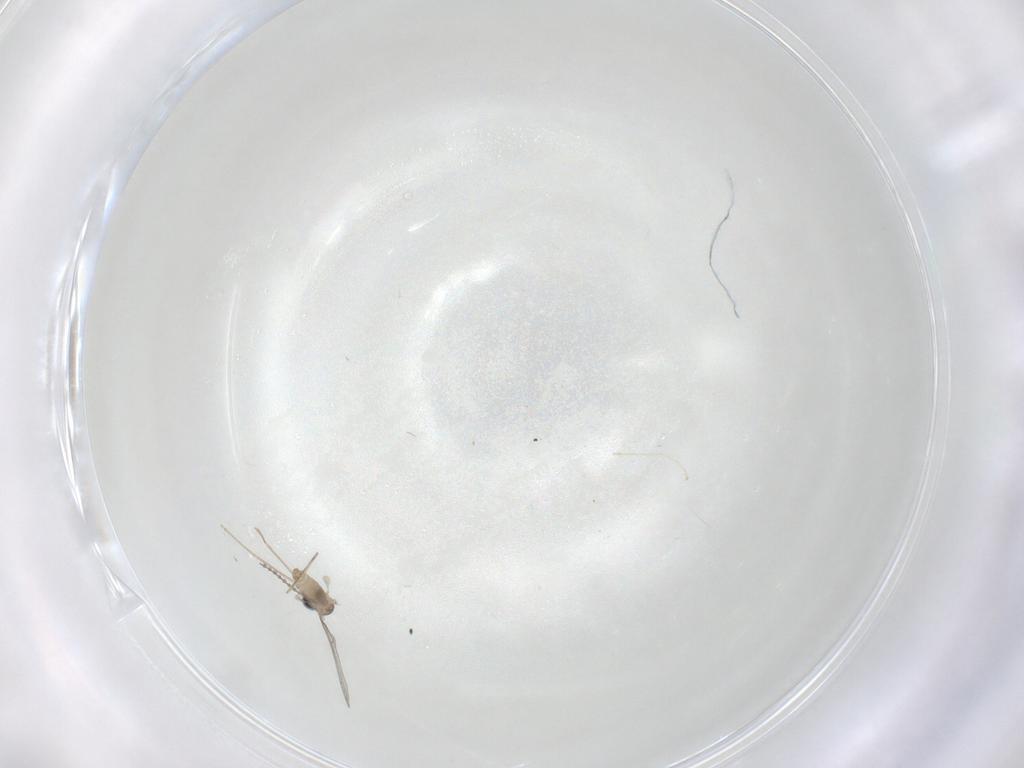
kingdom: Animalia
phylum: Arthropoda
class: Insecta
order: Diptera
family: Cecidomyiidae
